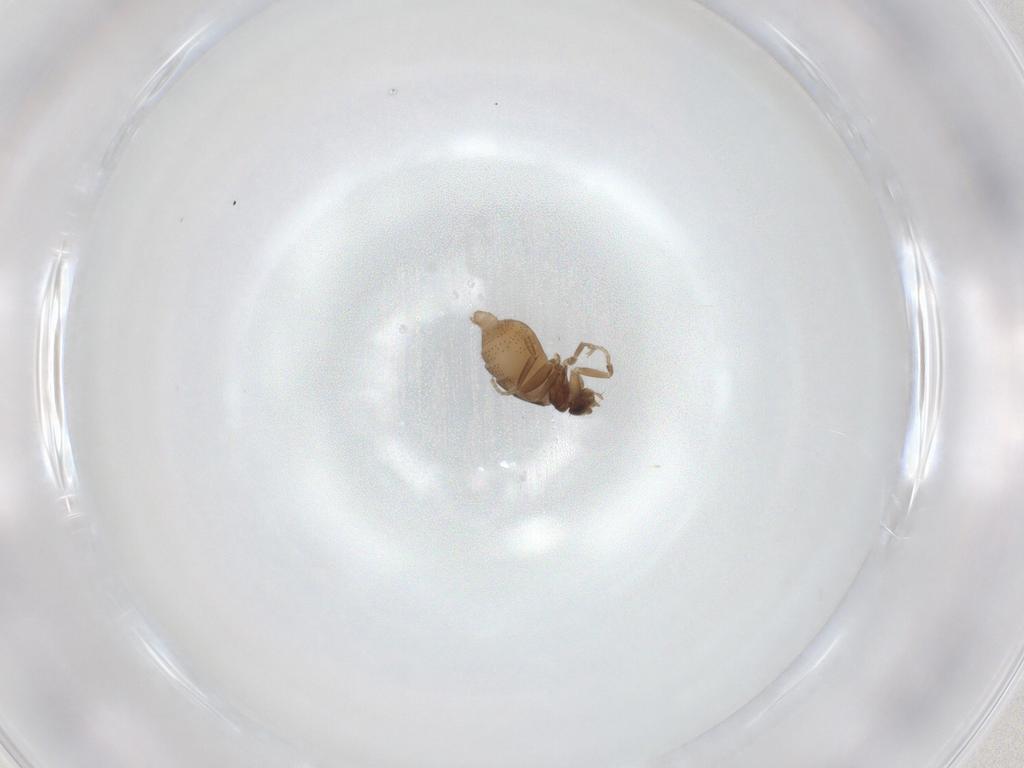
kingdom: Animalia
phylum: Arthropoda
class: Insecta
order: Diptera
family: Phoridae
